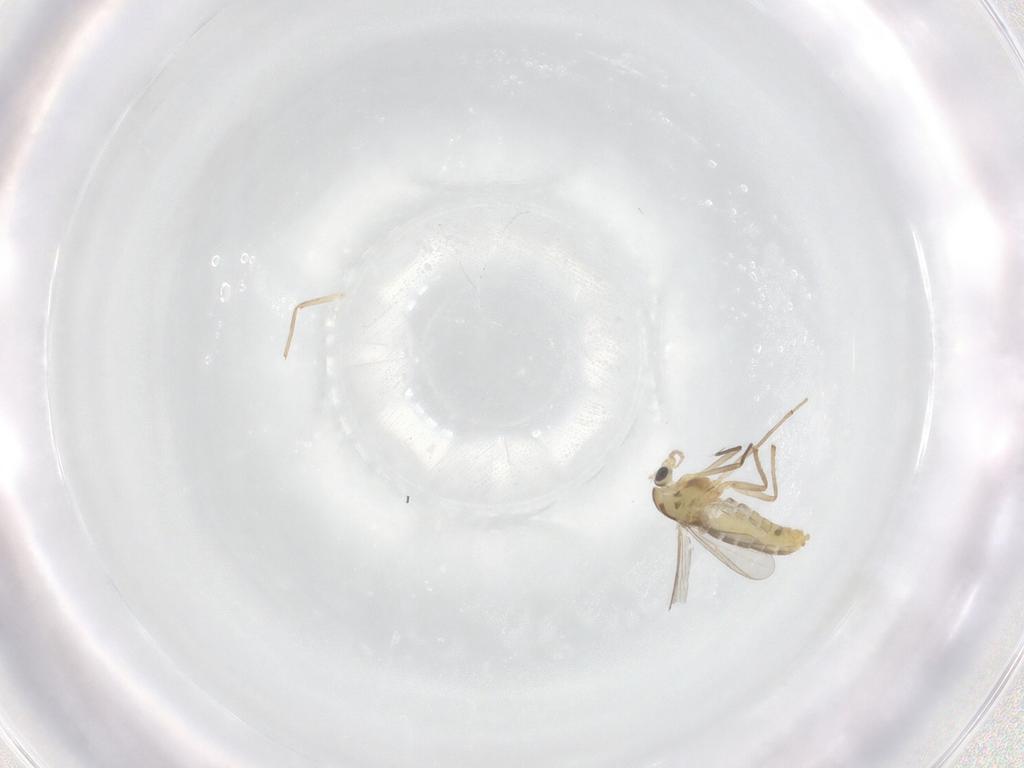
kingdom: Animalia
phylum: Arthropoda
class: Insecta
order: Diptera
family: Chironomidae
